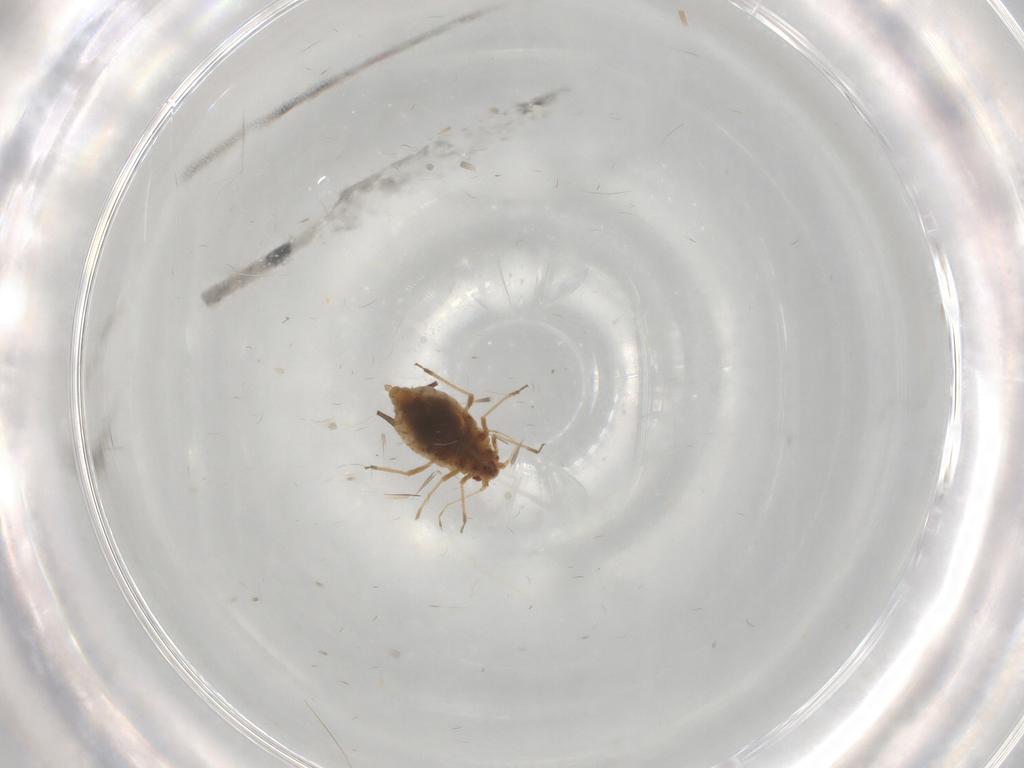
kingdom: Animalia
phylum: Arthropoda
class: Insecta
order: Hemiptera
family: Aphididae
